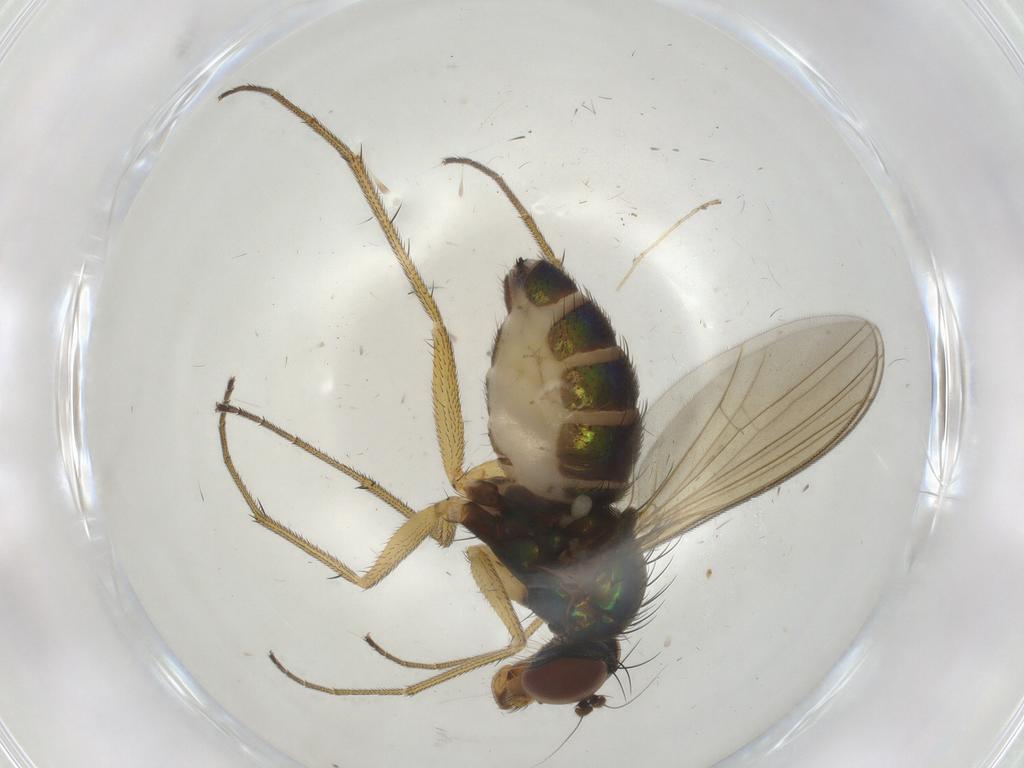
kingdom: Animalia
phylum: Arthropoda
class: Insecta
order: Diptera
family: Dolichopodidae
